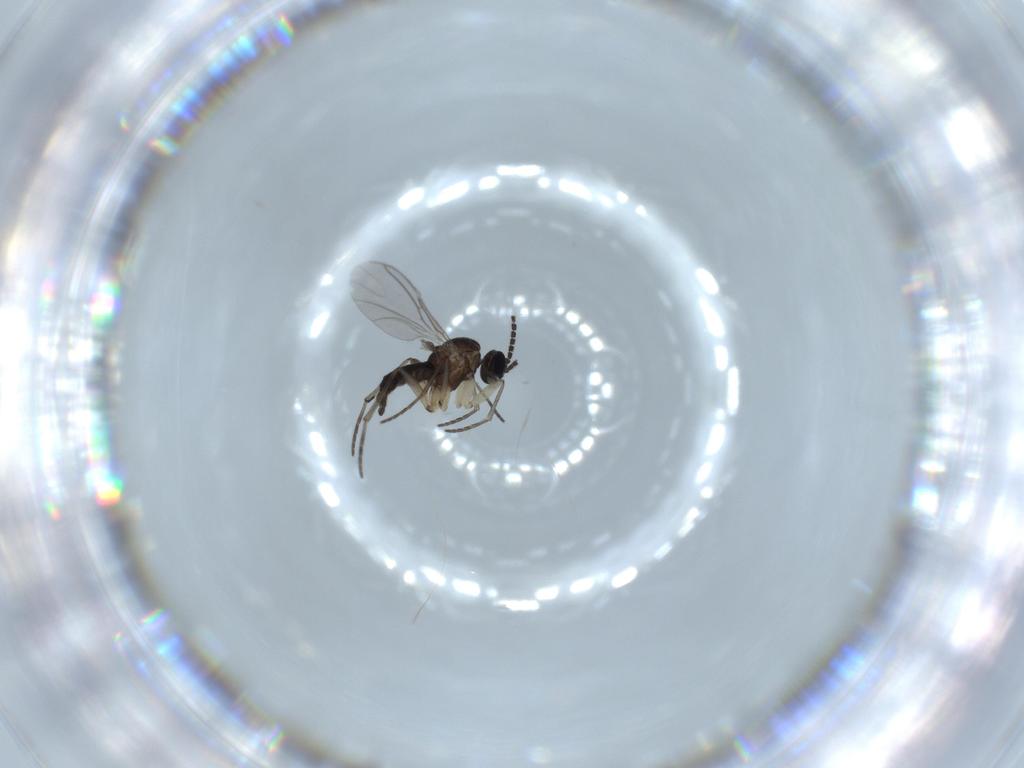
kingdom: Animalia
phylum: Arthropoda
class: Insecta
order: Diptera
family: Sciaridae
